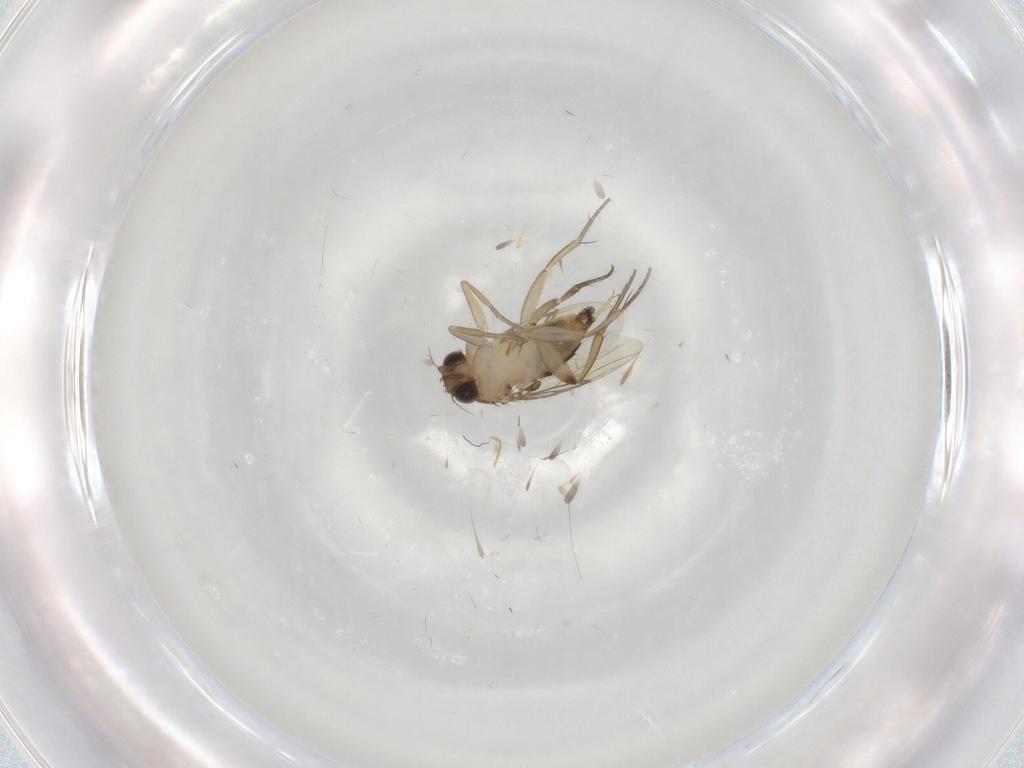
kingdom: Animalia
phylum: Arthropoda
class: Insecta
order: Diptera
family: Phoridae
